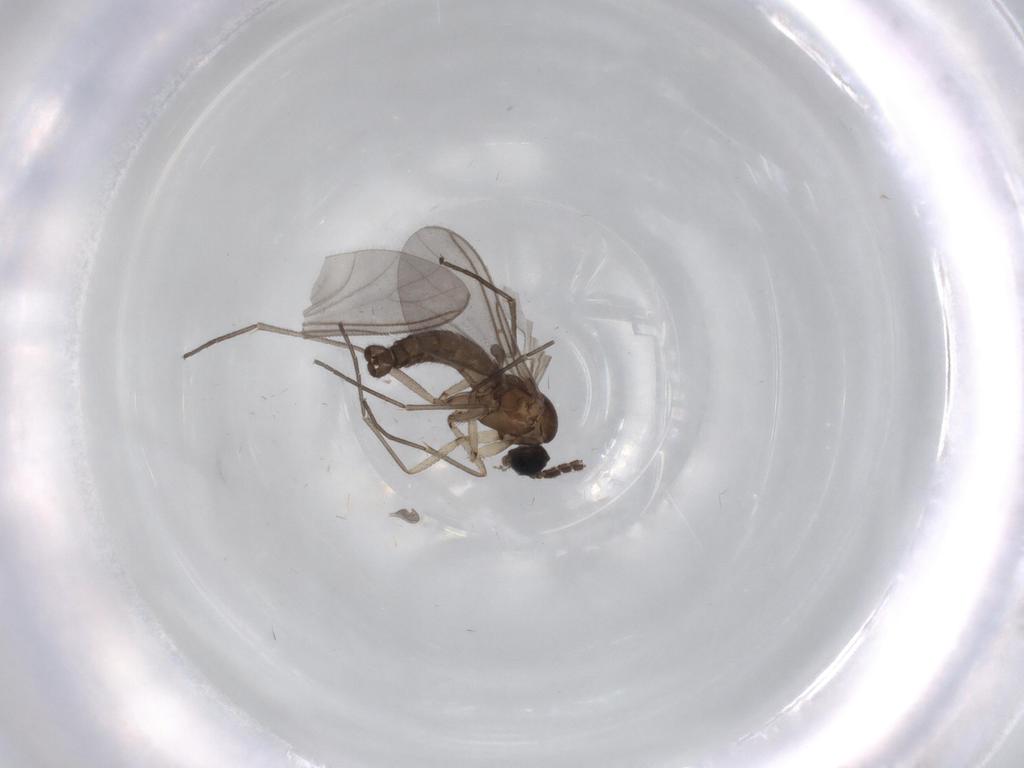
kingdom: Animalia
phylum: Arthropoda
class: Insecta
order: Diptera
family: Sciaridae
